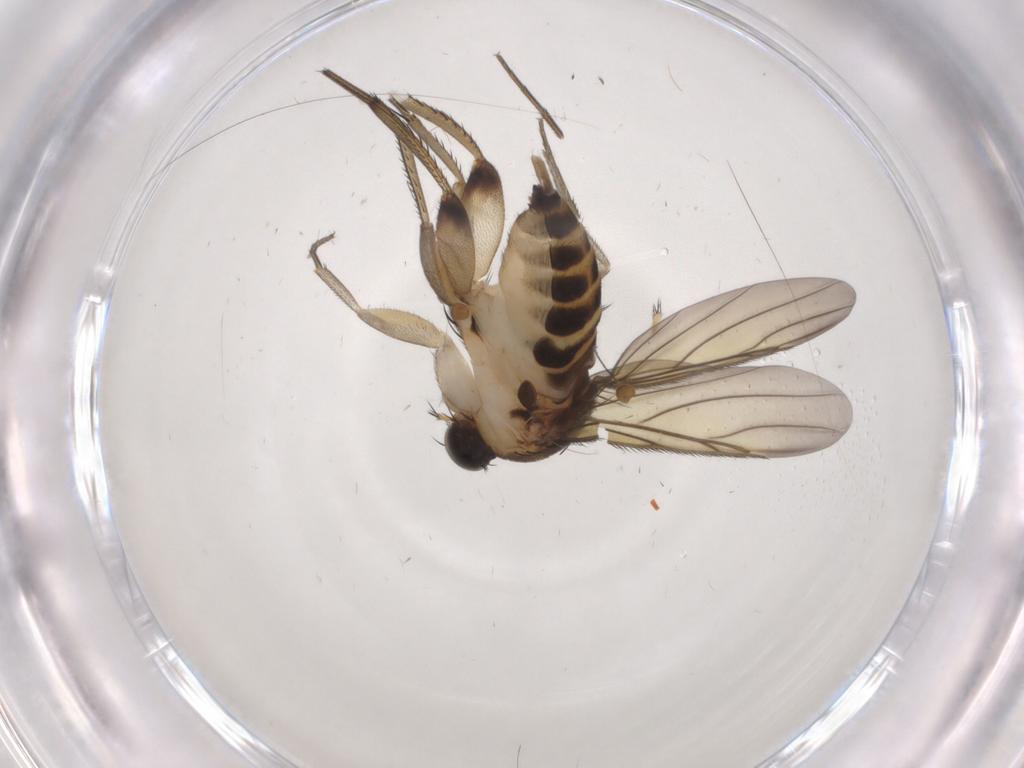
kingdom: Animalia
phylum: Arthropoda
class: Insecta
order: Diptera
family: Phoridae
